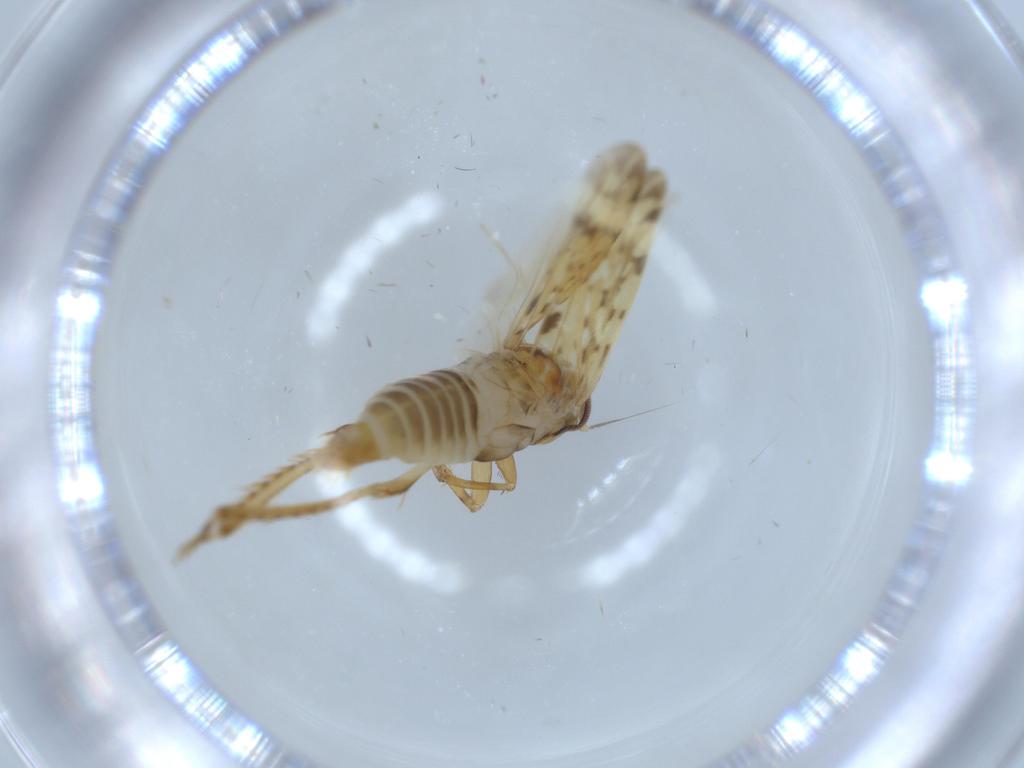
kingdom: Animalia
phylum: Arthropoda
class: Insecta
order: Hemiptera
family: Cicadellidae
